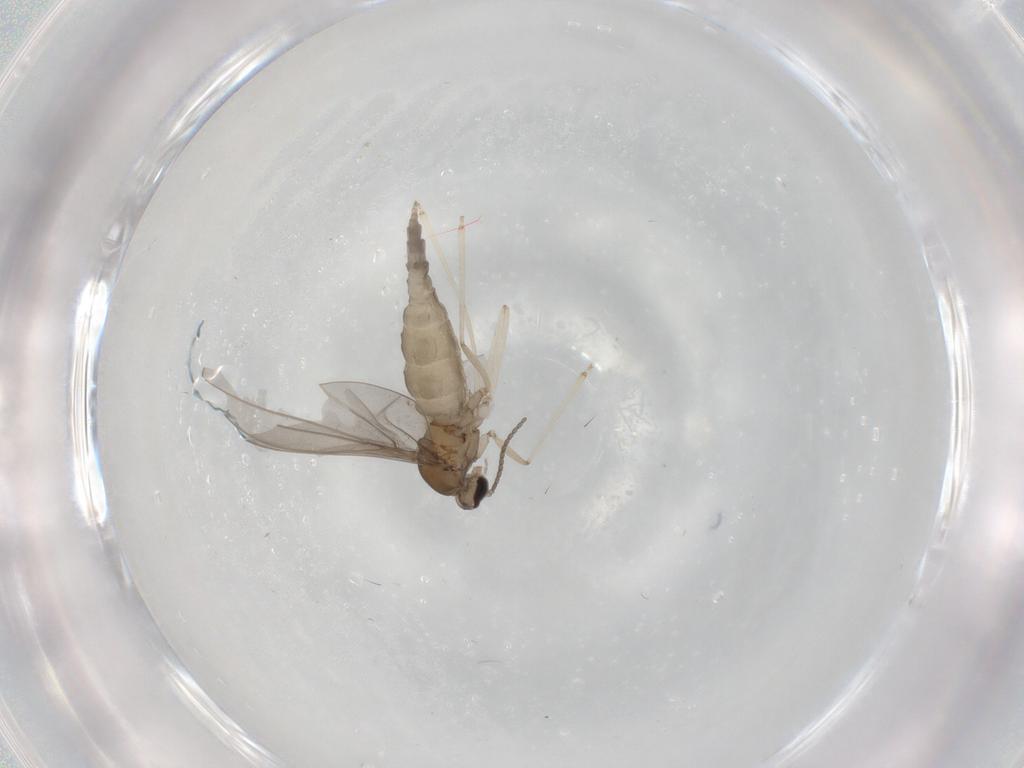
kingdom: Animalia
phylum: Arthropoda
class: Insecta
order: Diptera
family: Cecidomyiidae
